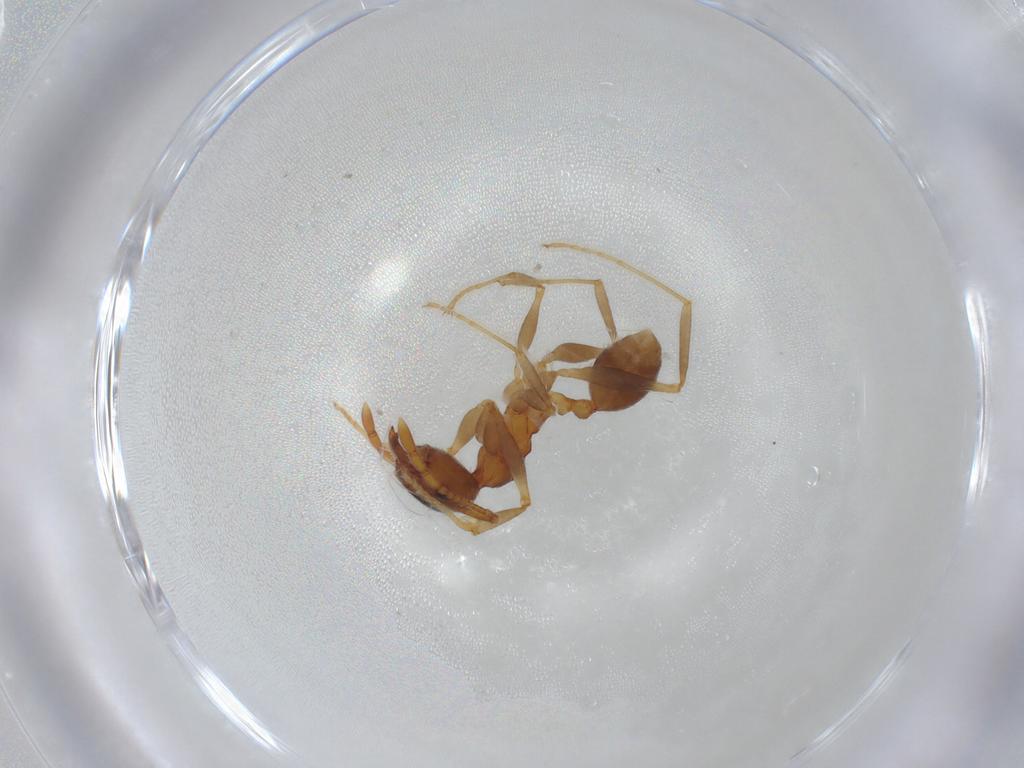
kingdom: Animalia
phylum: Arthropoda
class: Insecta
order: Hymenoptera
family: Formicidae
